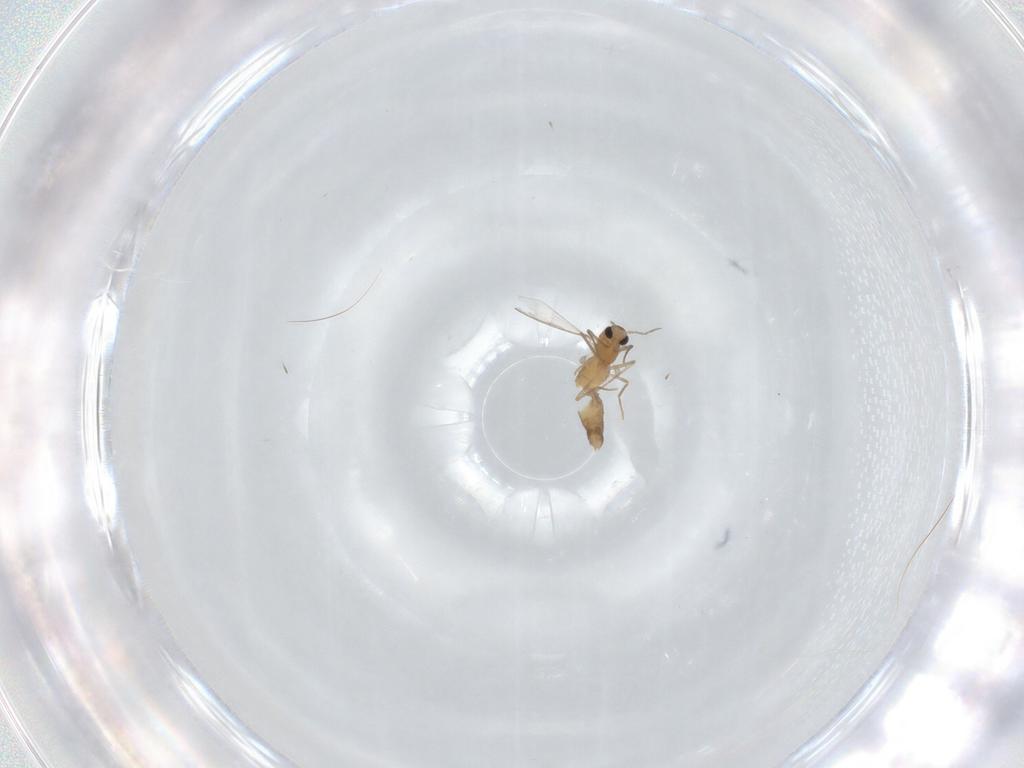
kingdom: Animalia
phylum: Arthropoda
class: Insecta
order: Diptera
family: Chironomidae
